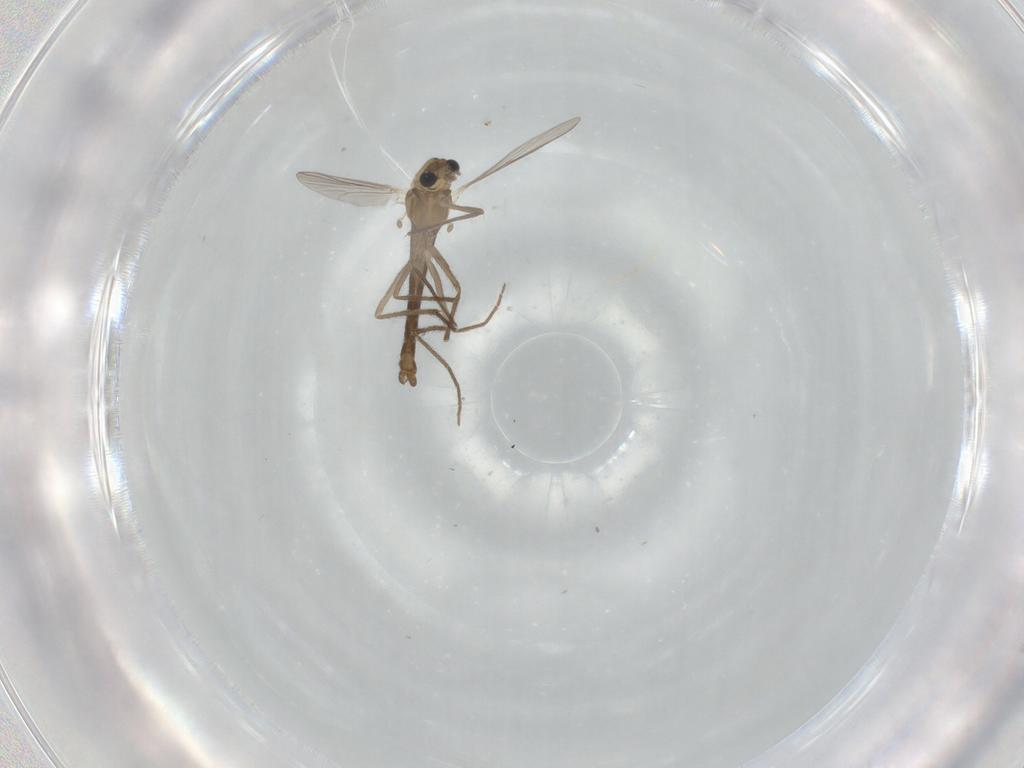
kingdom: Animalia
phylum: Arthropoda
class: Insecta
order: Diptera
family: Chironomidae
